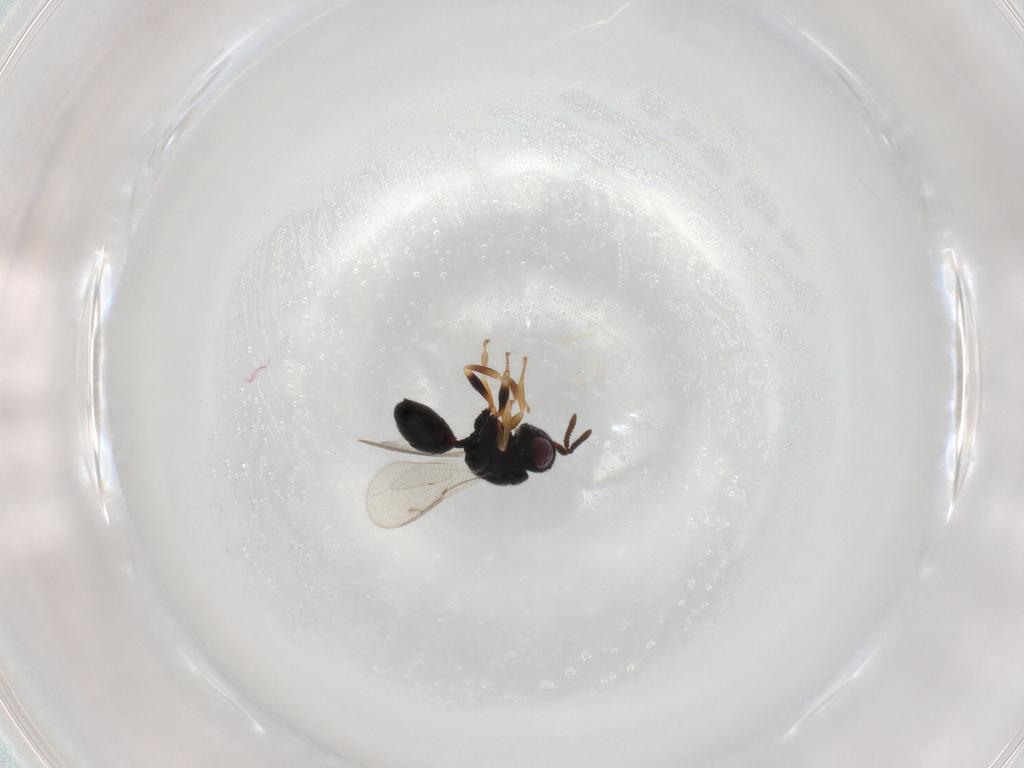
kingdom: Animalia
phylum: Arthropoda
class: Insecta
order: Hymenoptera
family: Eurytomidae
